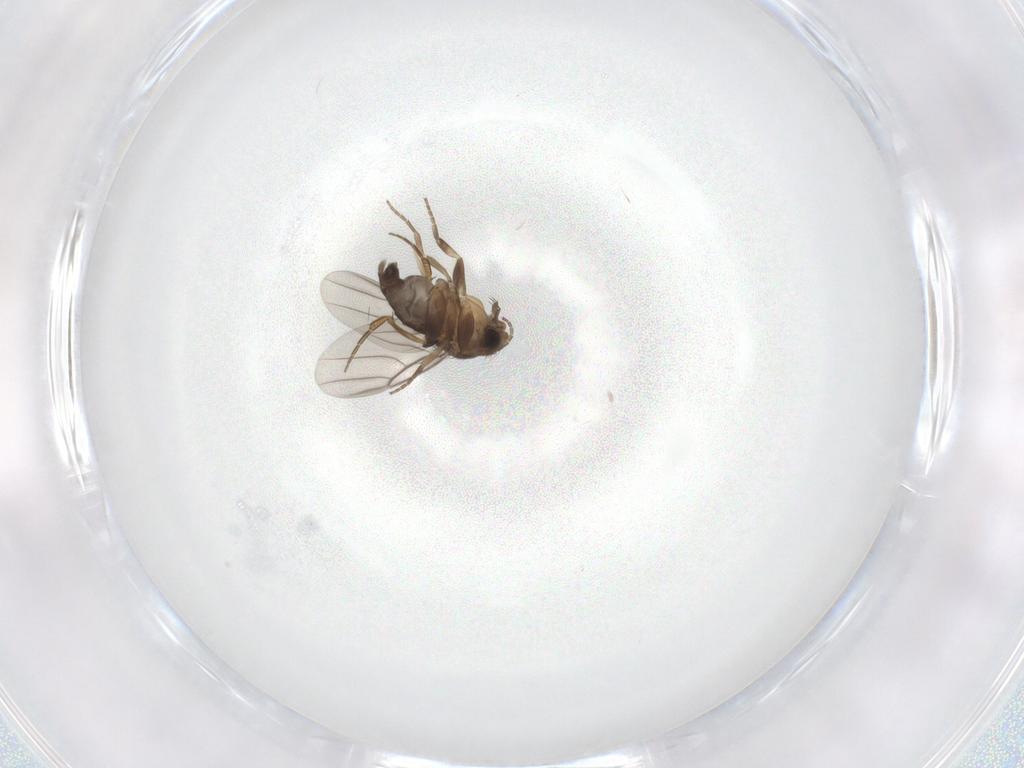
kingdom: Animalia
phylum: Arthropoda
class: Insecta
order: Diptera
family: Phoridae
